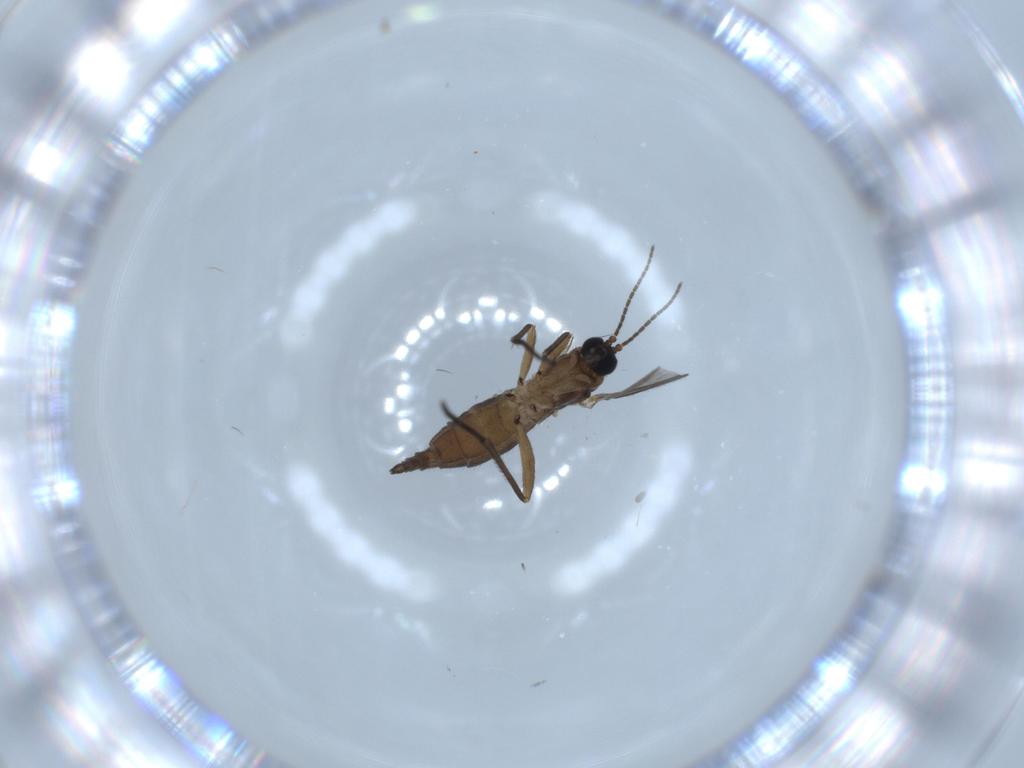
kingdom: Animalia
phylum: Arthropoda
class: Insecta
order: Diptera
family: Sciaridae
